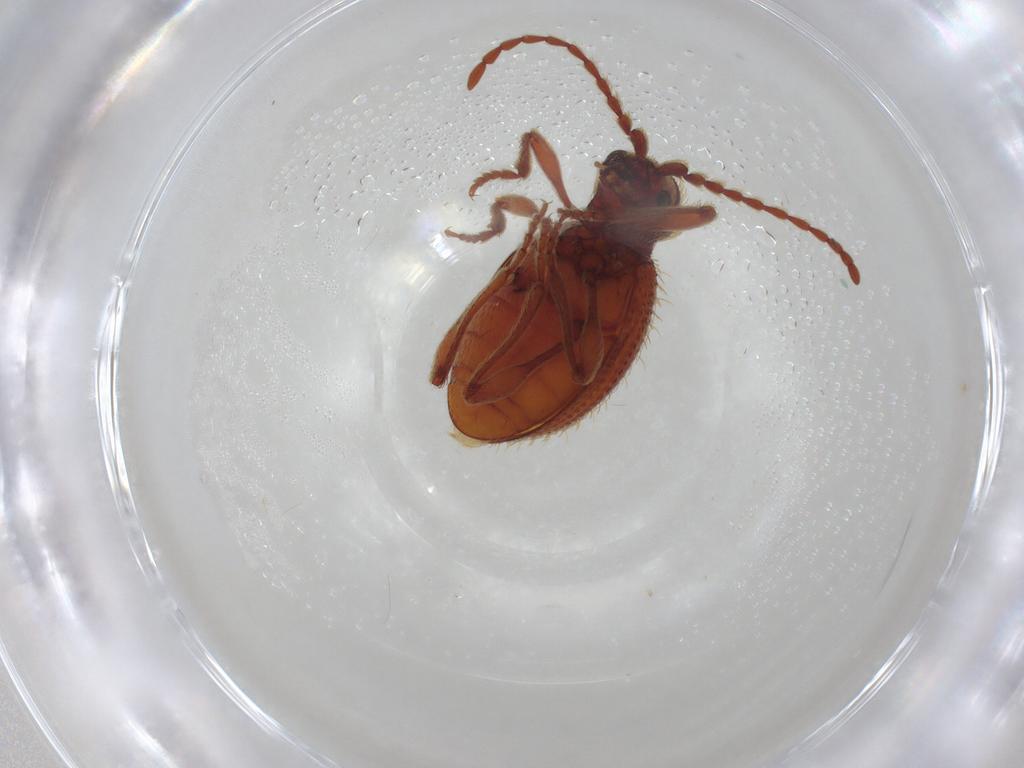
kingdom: Animalia
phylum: Arthropoda
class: Insecta
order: Coleoptera
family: Ptinidae
